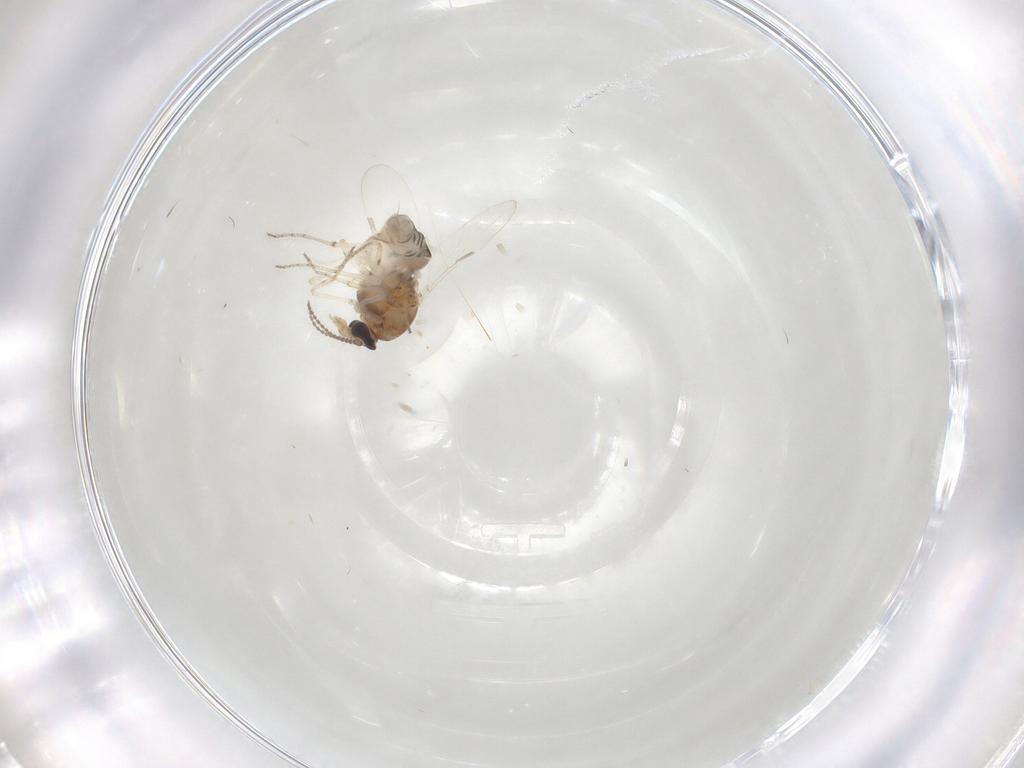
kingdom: Animalia
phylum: Arthropoda
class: Insecta
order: Diptera
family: Ceratopogonidae
